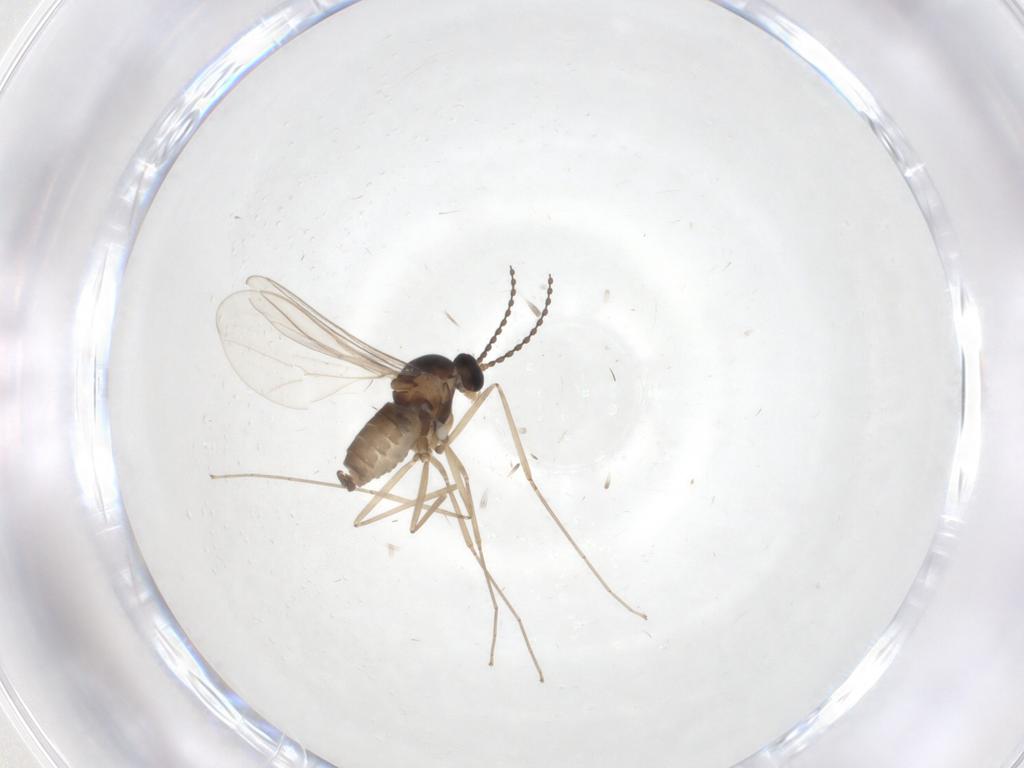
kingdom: Animalia
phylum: Arthropoda
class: Insecta
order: Diptera
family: Cecidomyiidae
